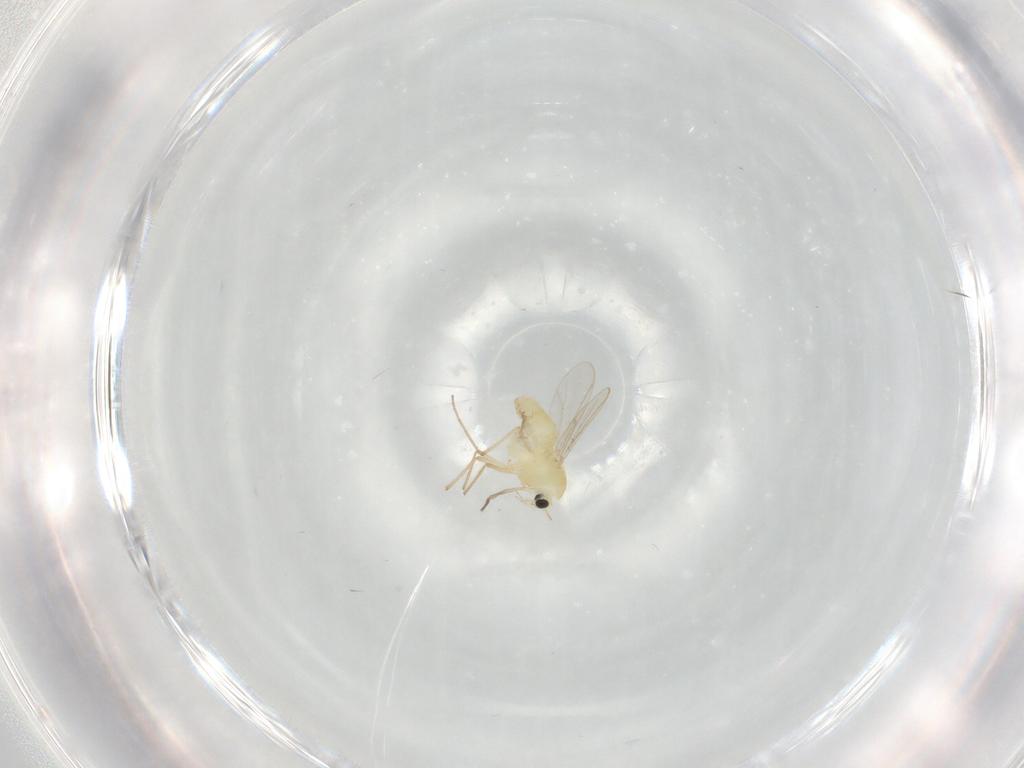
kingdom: Animalia
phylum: Arthropoda
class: Insecta
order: Diptera
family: Chironomidae
